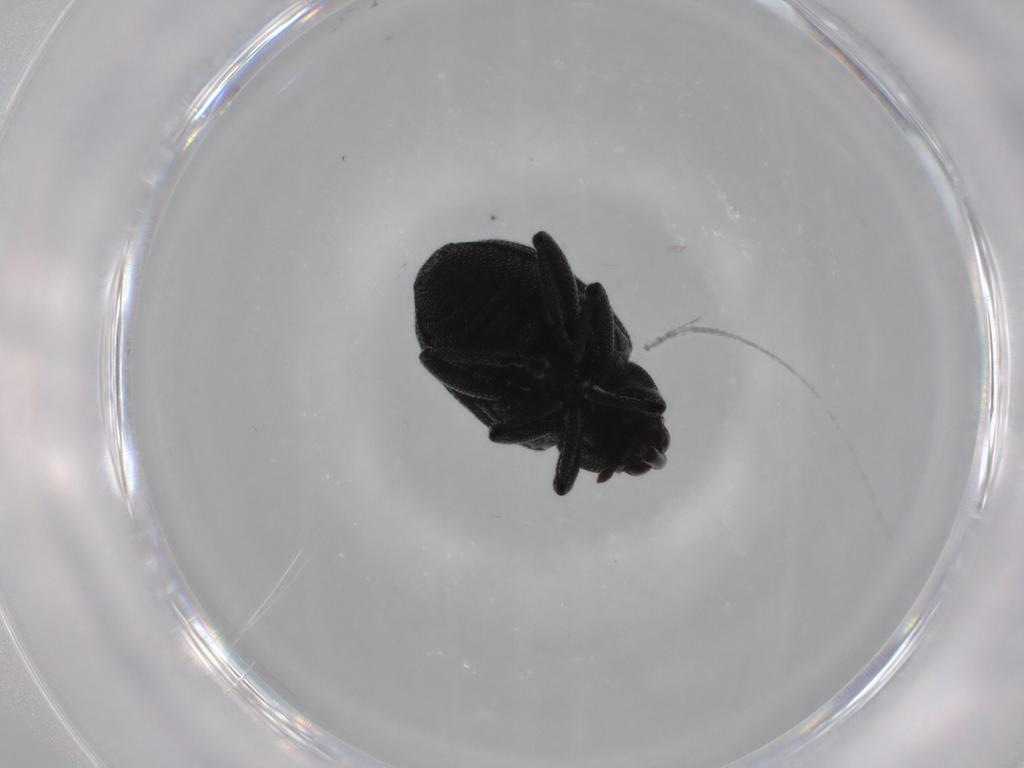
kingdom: Animalia
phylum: Arthropoda
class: Insecta
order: Coleoptera
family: Curculionidae
